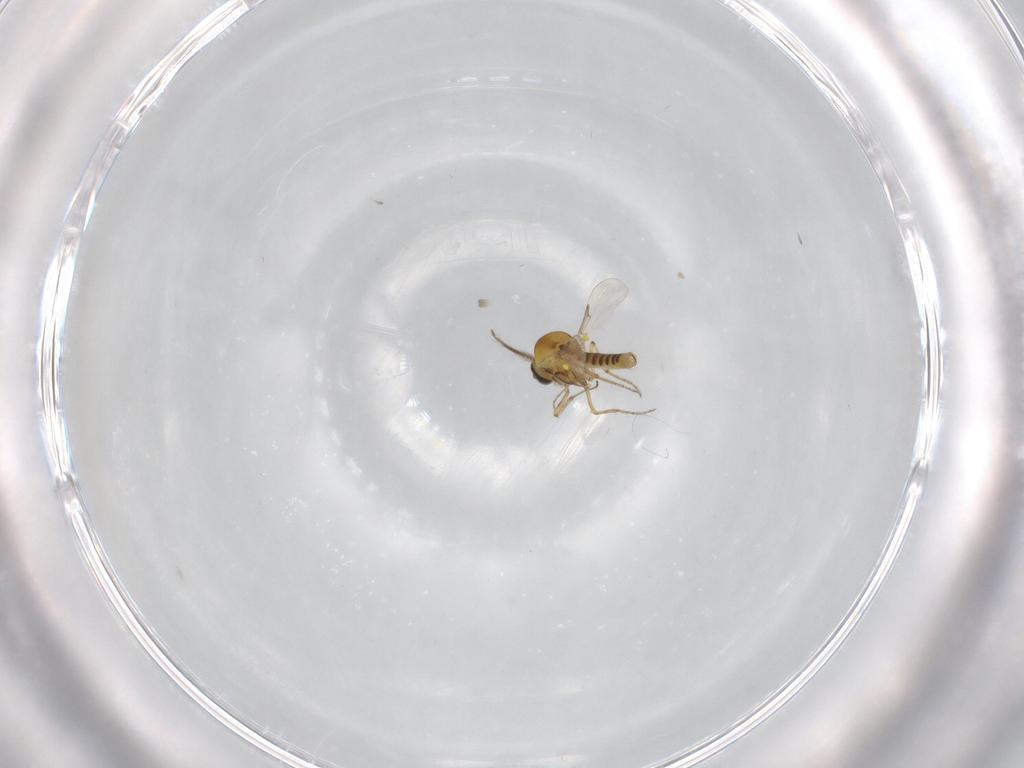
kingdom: Animalia
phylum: Arthropoda
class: Insecta
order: Diptera
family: Ceratopogonidae
